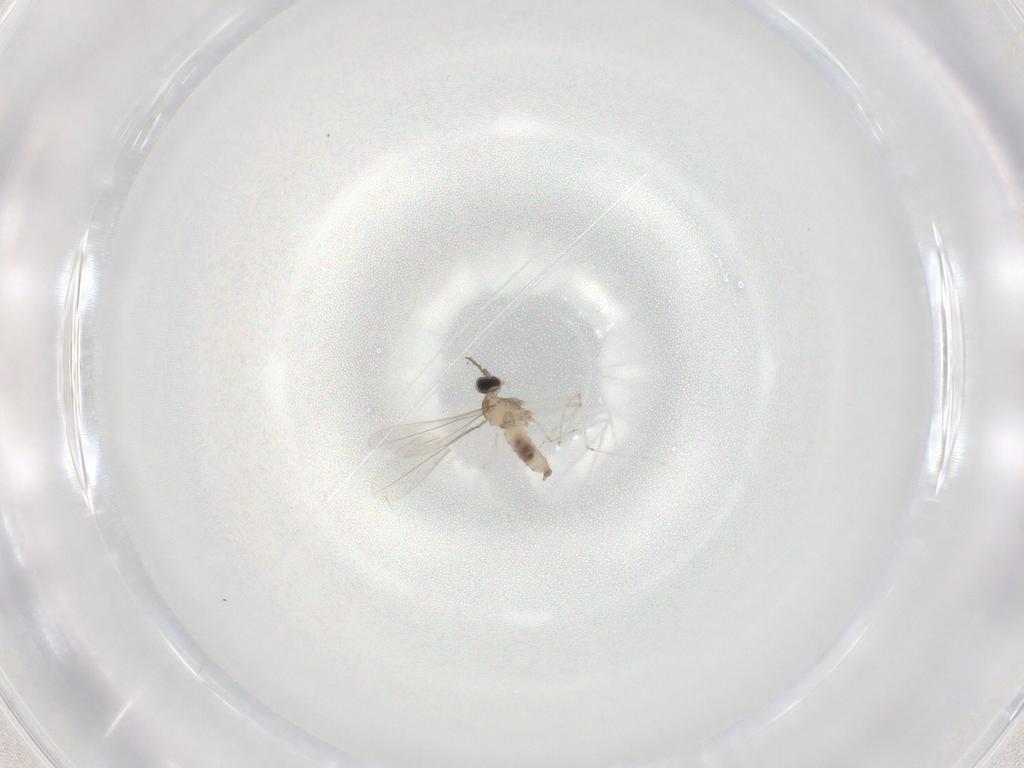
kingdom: Animalia
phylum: Arthropoda
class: Insecta
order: Diptera
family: Cecidomyiidae
